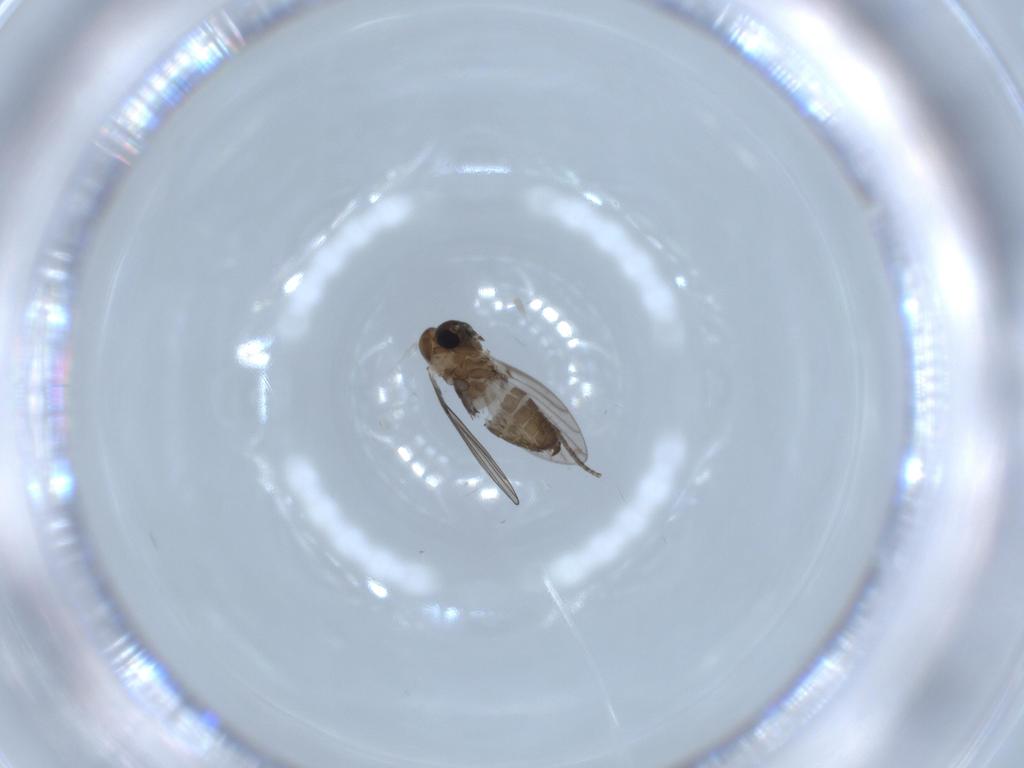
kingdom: Animalia
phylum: Arthropoda
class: Insecta
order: Diptera
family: Psychodidae
